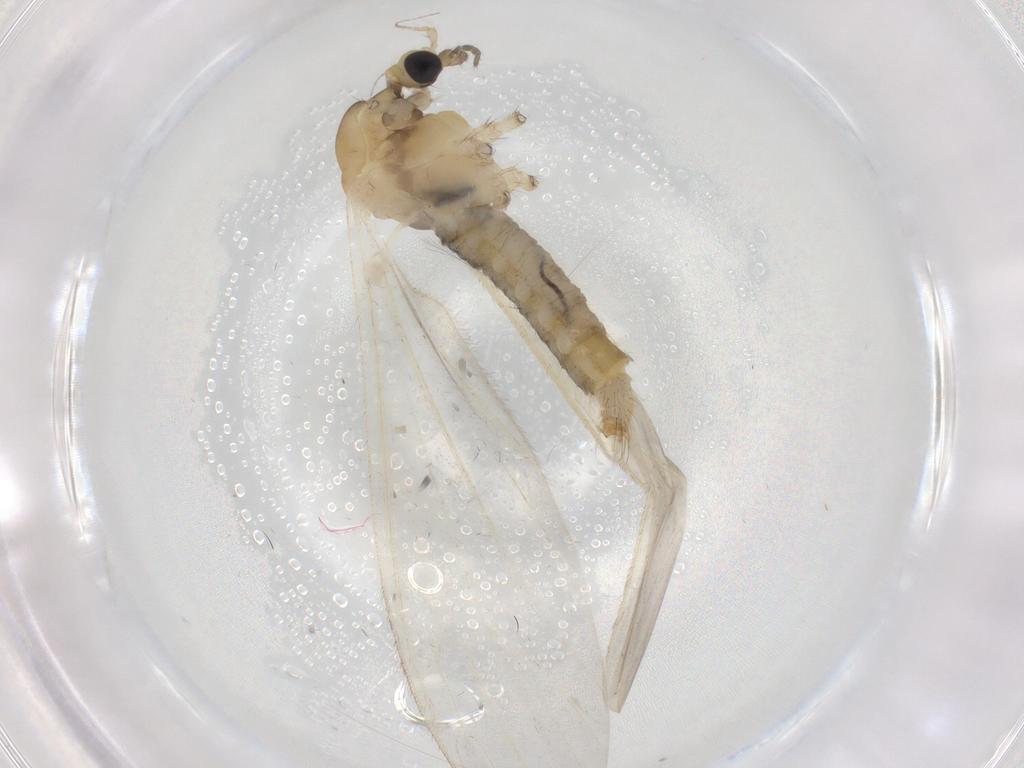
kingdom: Animalia
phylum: Arthropoda
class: Insecta
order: Diptera
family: Limoniidae
